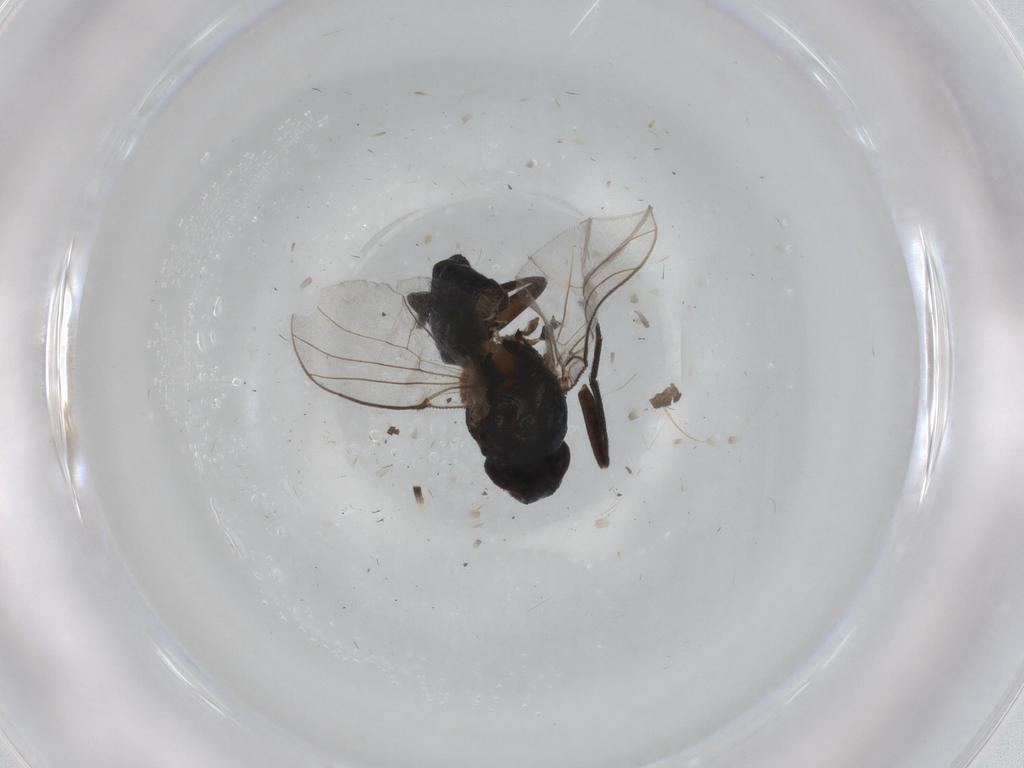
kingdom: Animalia
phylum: Arthropoda
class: Insecta
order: Diptera
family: Agromyzidae
